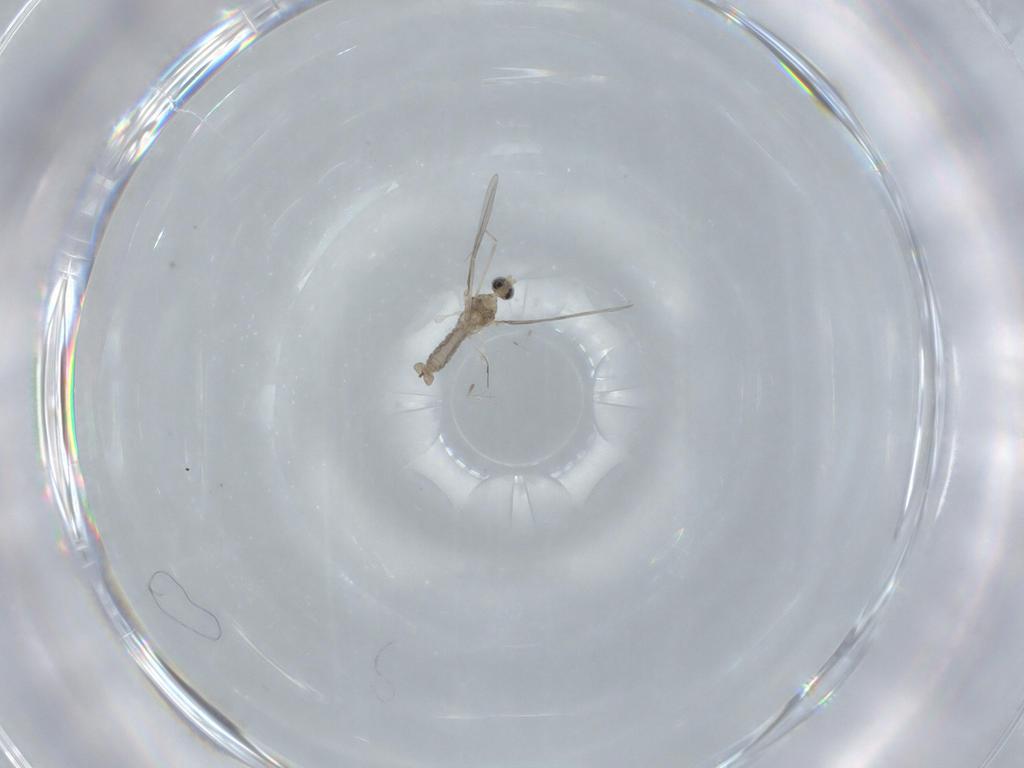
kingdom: Animalia
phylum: Arthropoda
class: Insecta
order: Diptera
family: Cecidomyiidae
